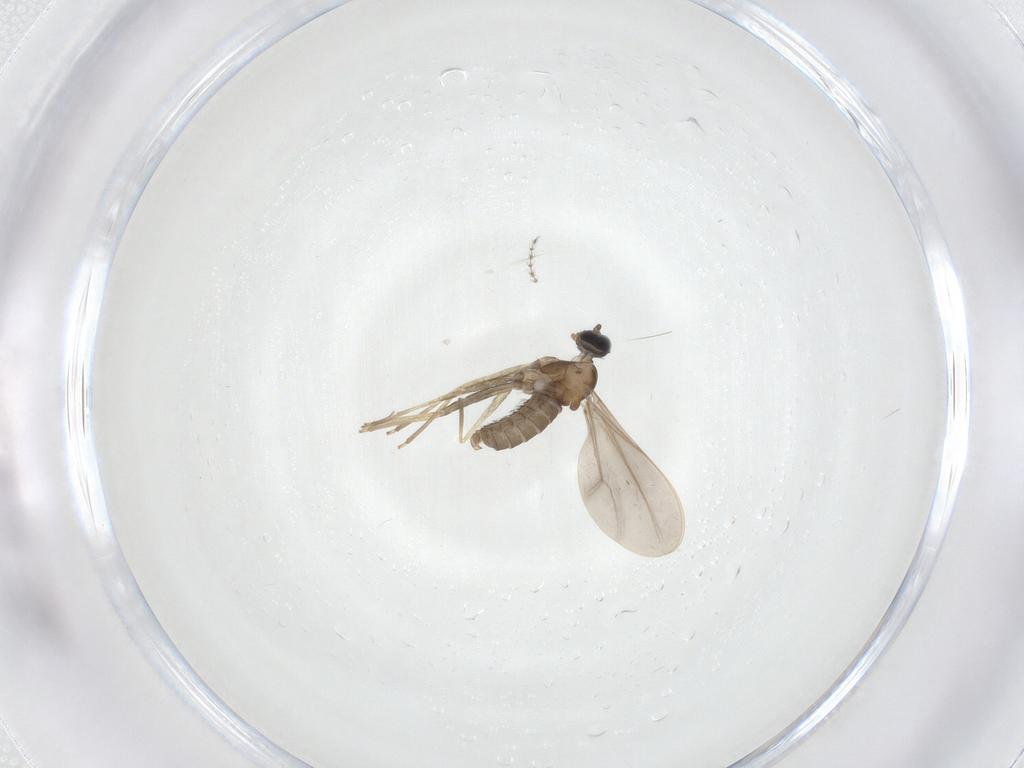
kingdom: Animalia
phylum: Arthropoda
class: Insecta
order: Diptera
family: Cecidomyiidae
